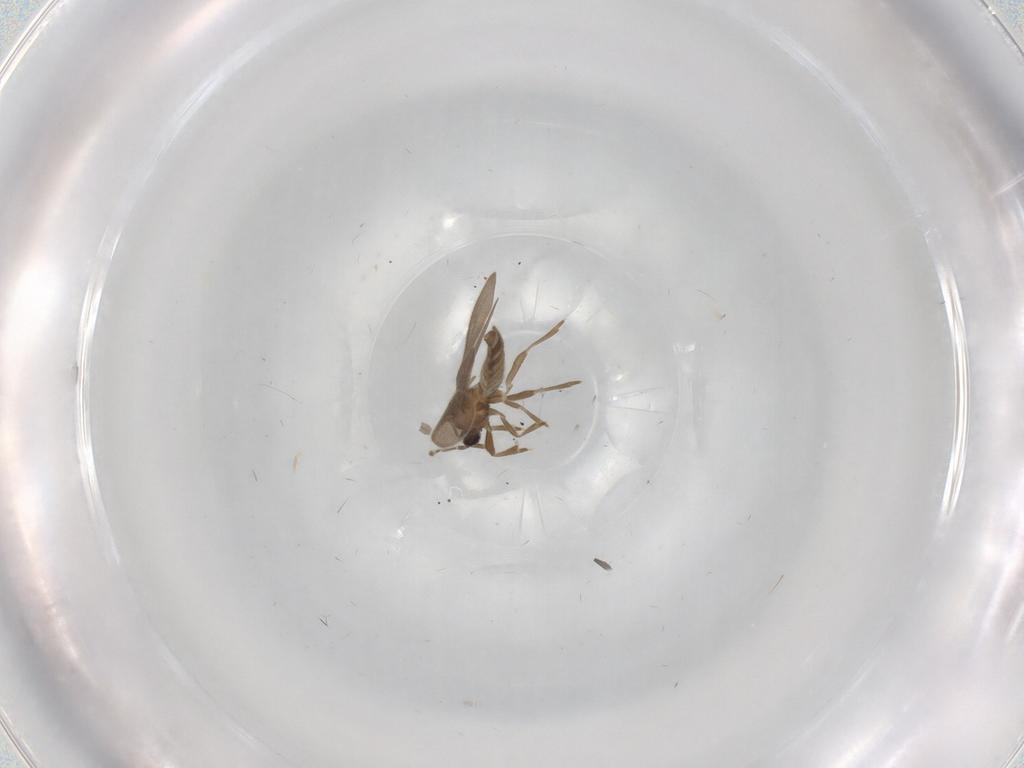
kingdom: Animalia
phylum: Arthropoda
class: Insecta
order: Hemiptera
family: Enicocephalidae
